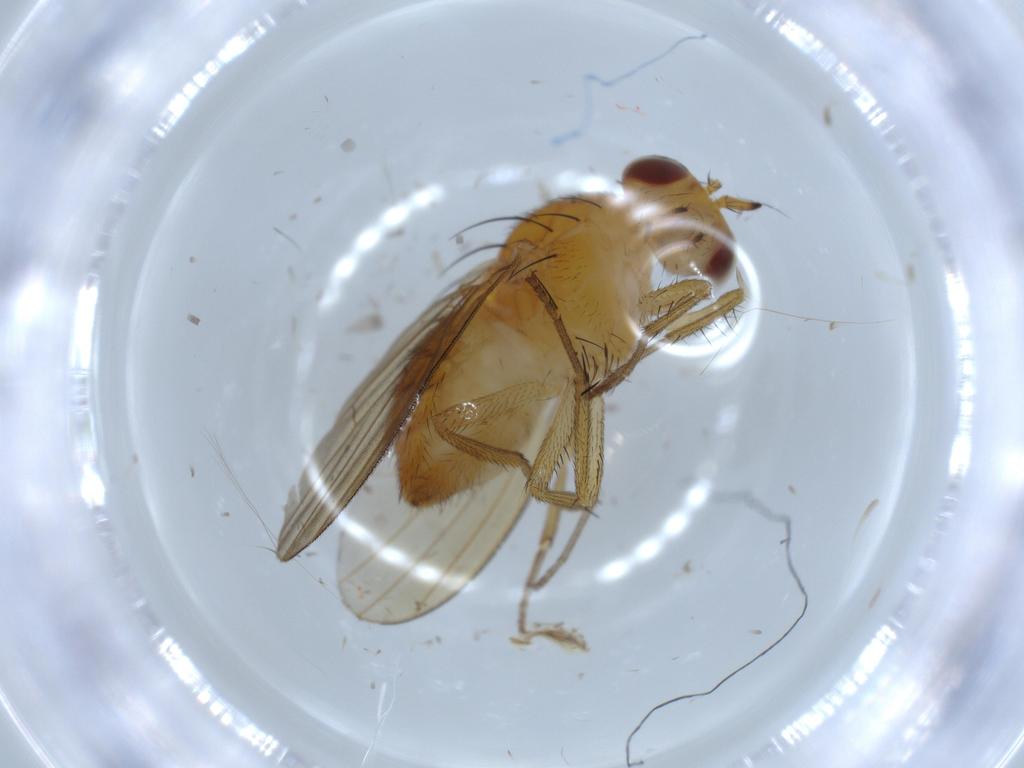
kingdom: Animalia
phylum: Arthropoda
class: Insecta
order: Diptera
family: Lauxaniidae
